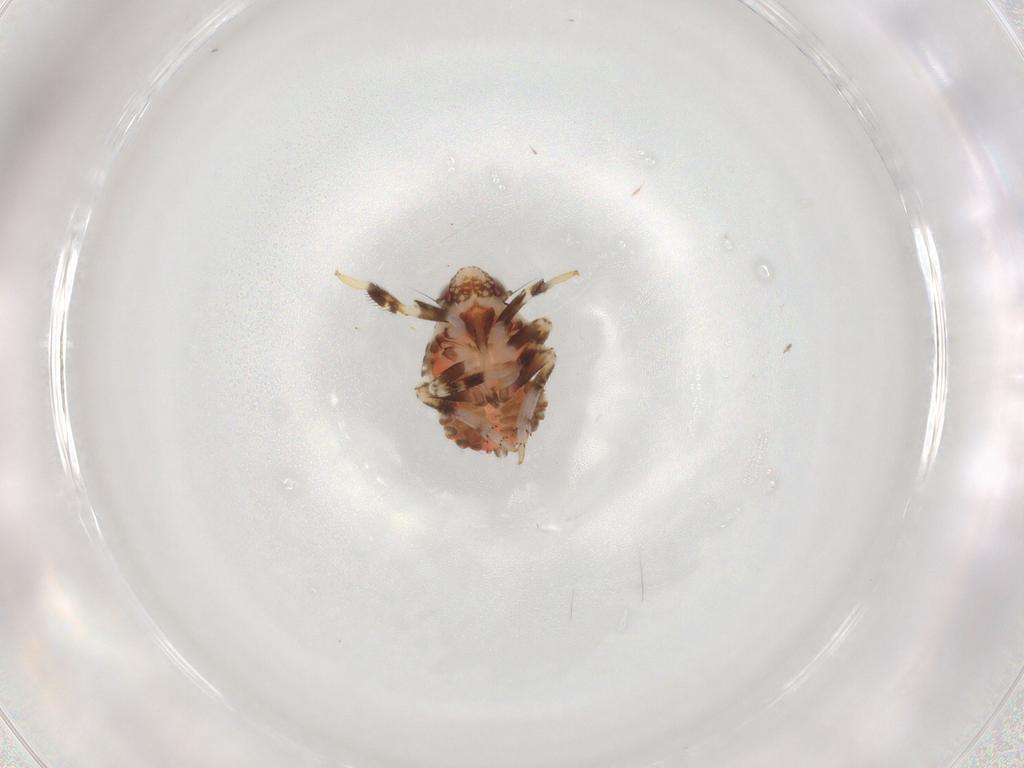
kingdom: Animalia
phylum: Arthropoda
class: Insecta
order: Hemiptera
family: Fulgoroidea_incertae_sedis
